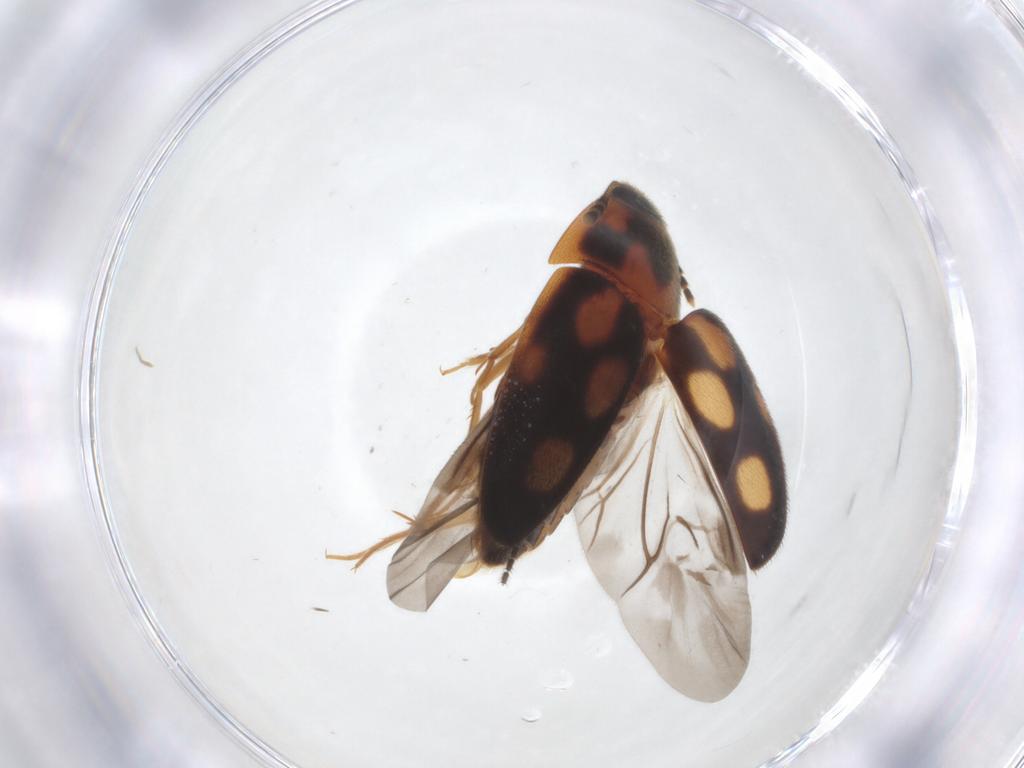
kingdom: Animalia
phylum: Arthropoda
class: Insecta
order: Coleoptera
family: Mycetophagidae
